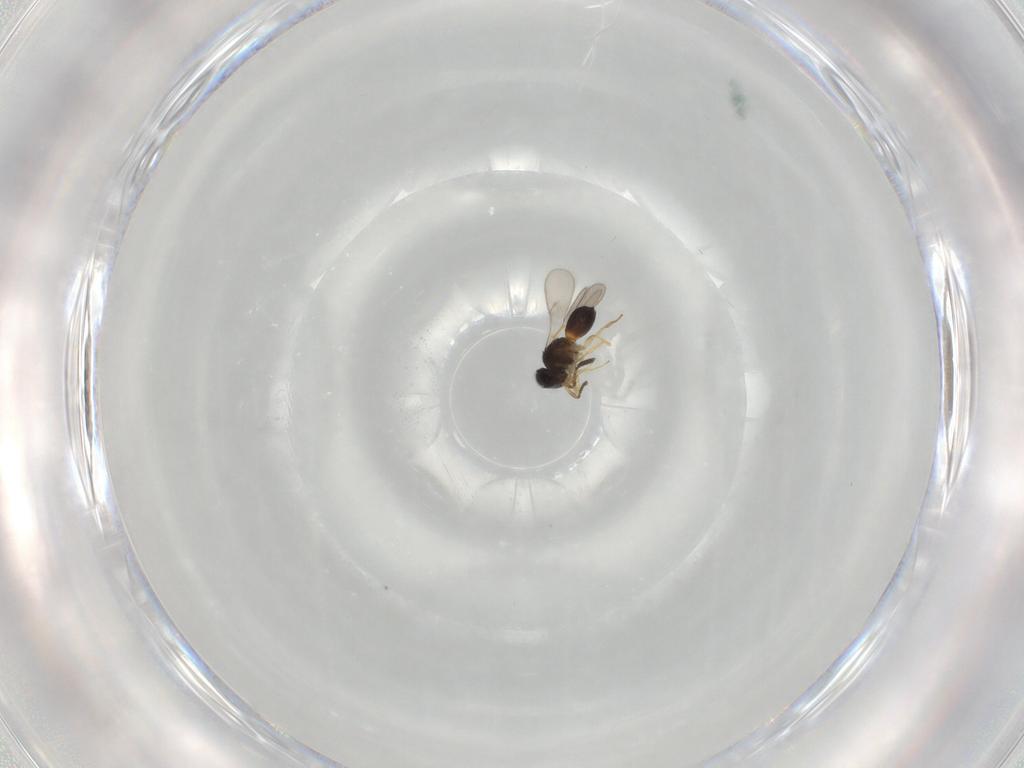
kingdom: Animalia
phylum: Arthropoda
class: Insecta
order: Hymenoptera
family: Scelionidae
